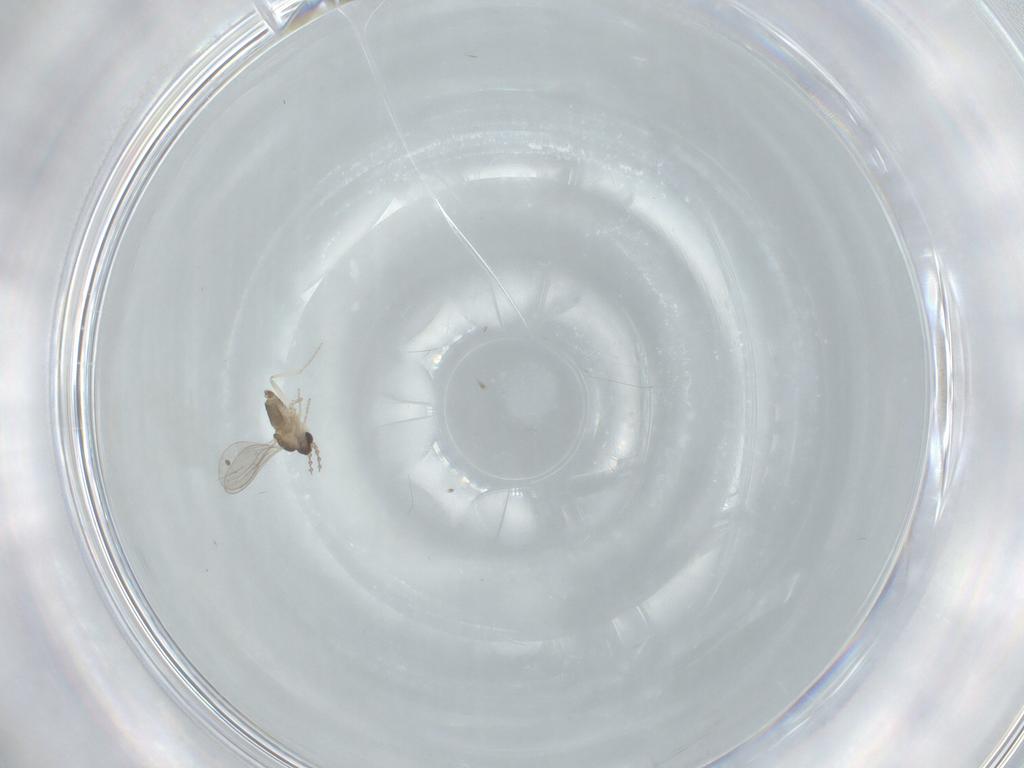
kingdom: Animalia
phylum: Arthropoda
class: Insecta
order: Diptera
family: Cecidomyiidae
